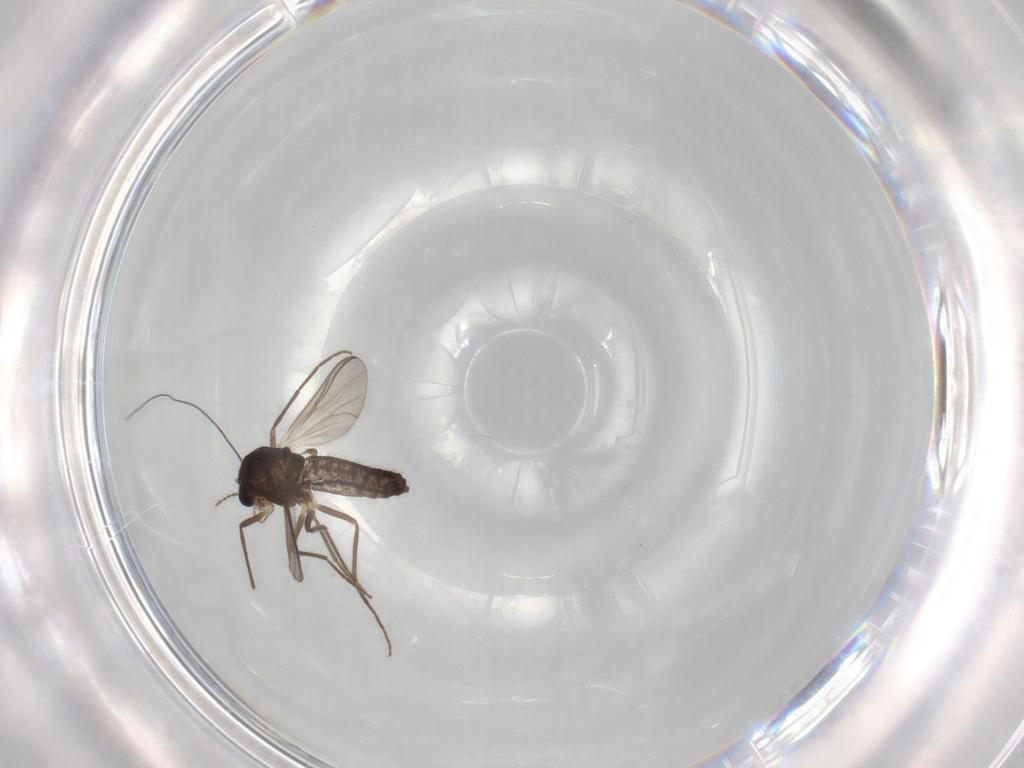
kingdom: Animalia
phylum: Arthropoda
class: Insecta
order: Diptera
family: Chironomidae
